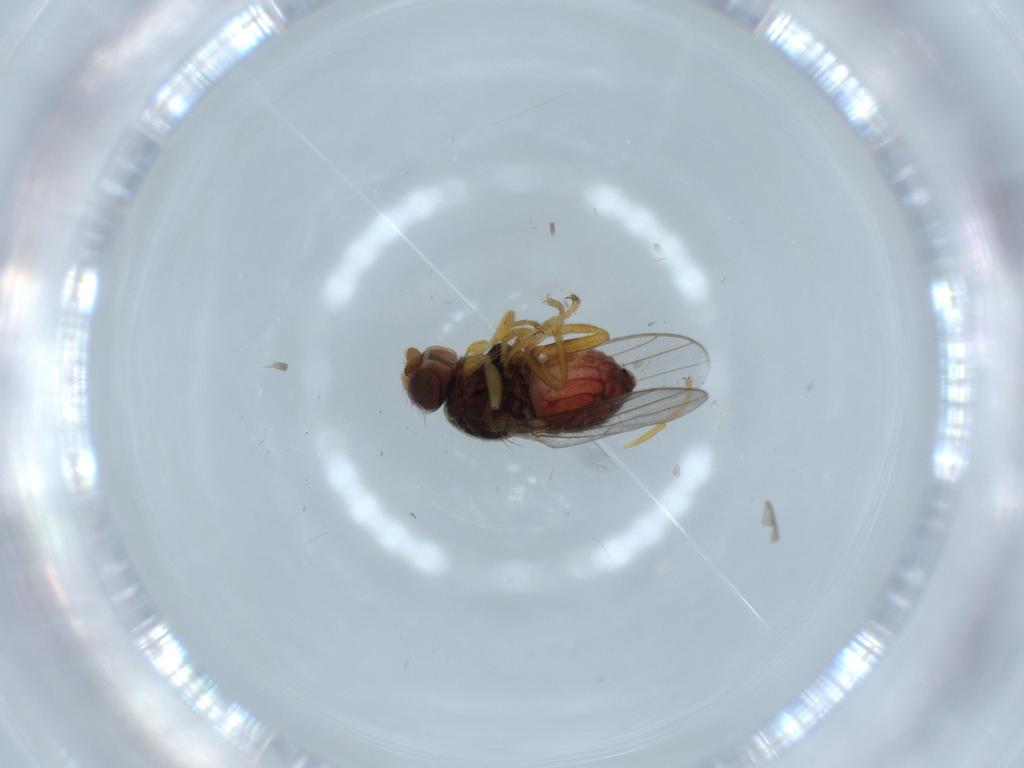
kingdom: Animalia
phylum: Arthropoda
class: Insecta
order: Diptera
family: Chloropidae
